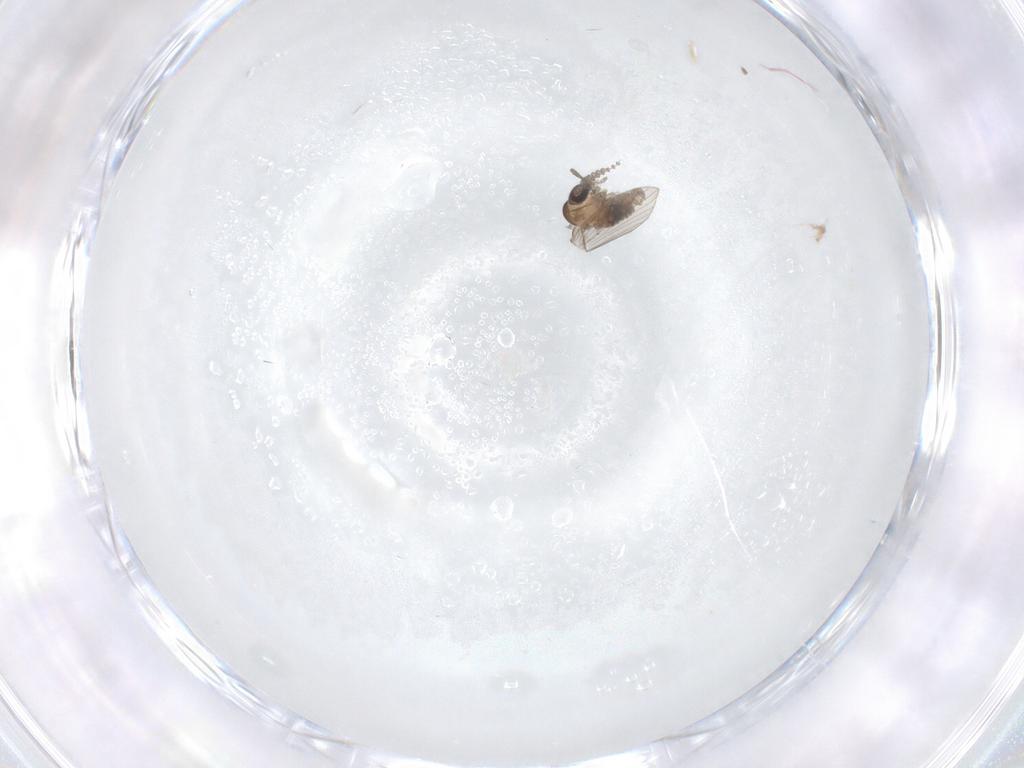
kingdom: Animalia
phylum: Arthropoda
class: Insecta
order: Diptera
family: Psychodidae
